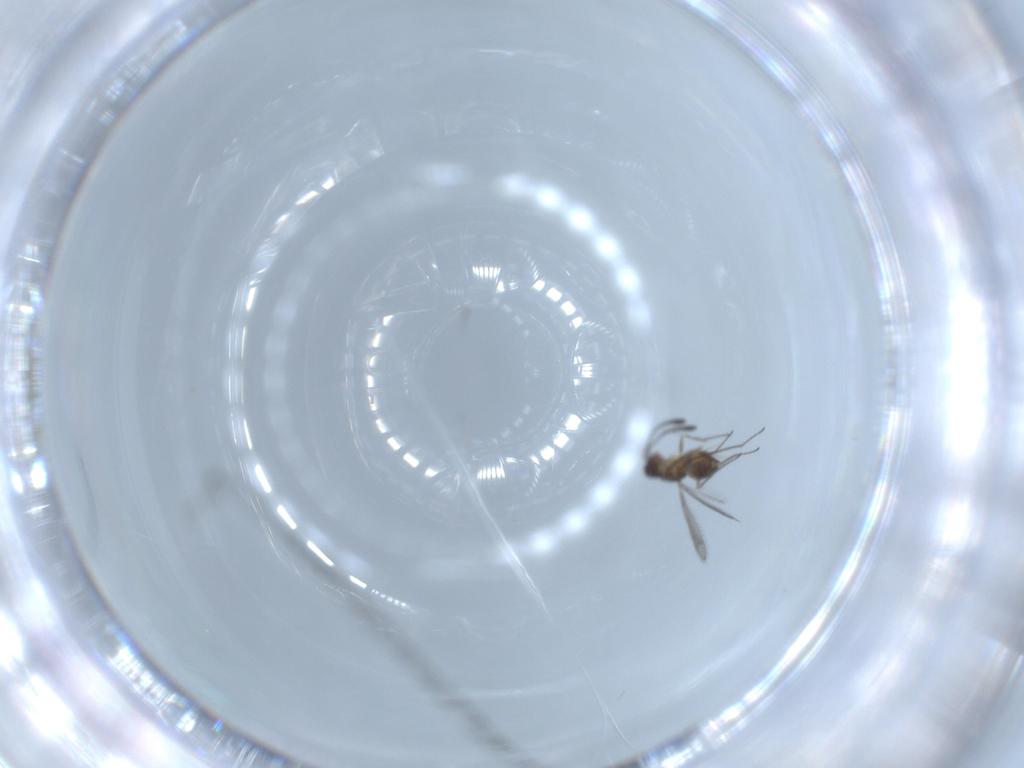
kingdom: Animalia
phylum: Arthropoda
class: Insecta
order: Hymenoptera
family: Mymaridae
